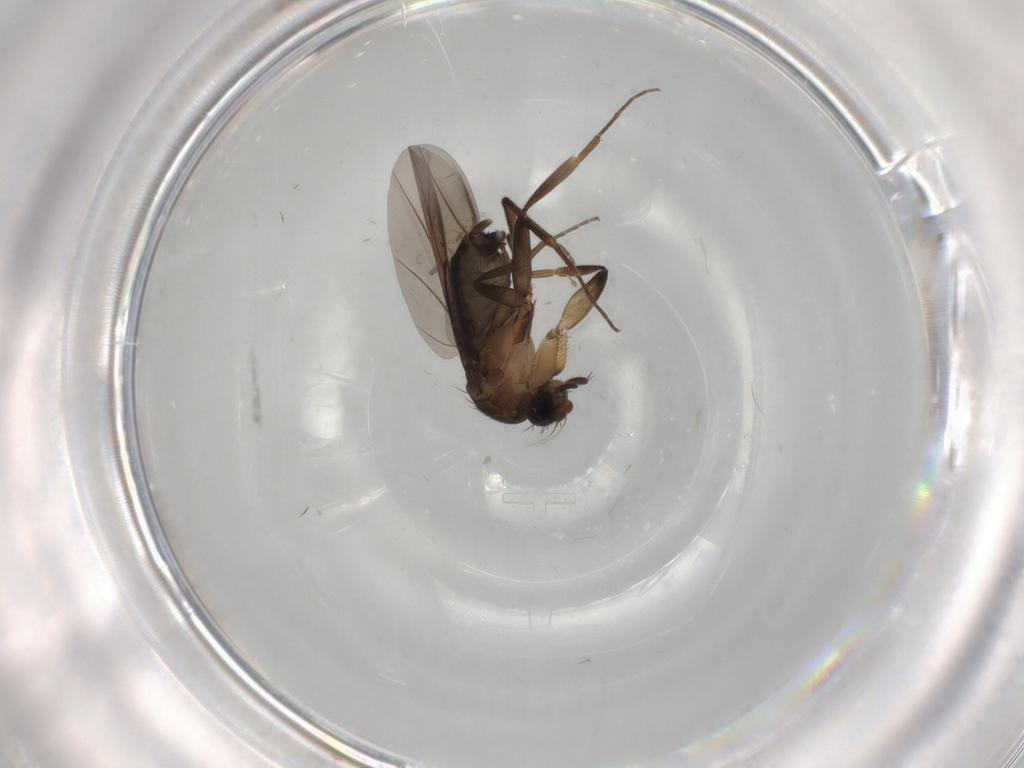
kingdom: Animalia
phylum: Arthropoda
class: Insecta
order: Diptera
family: Phoridae
